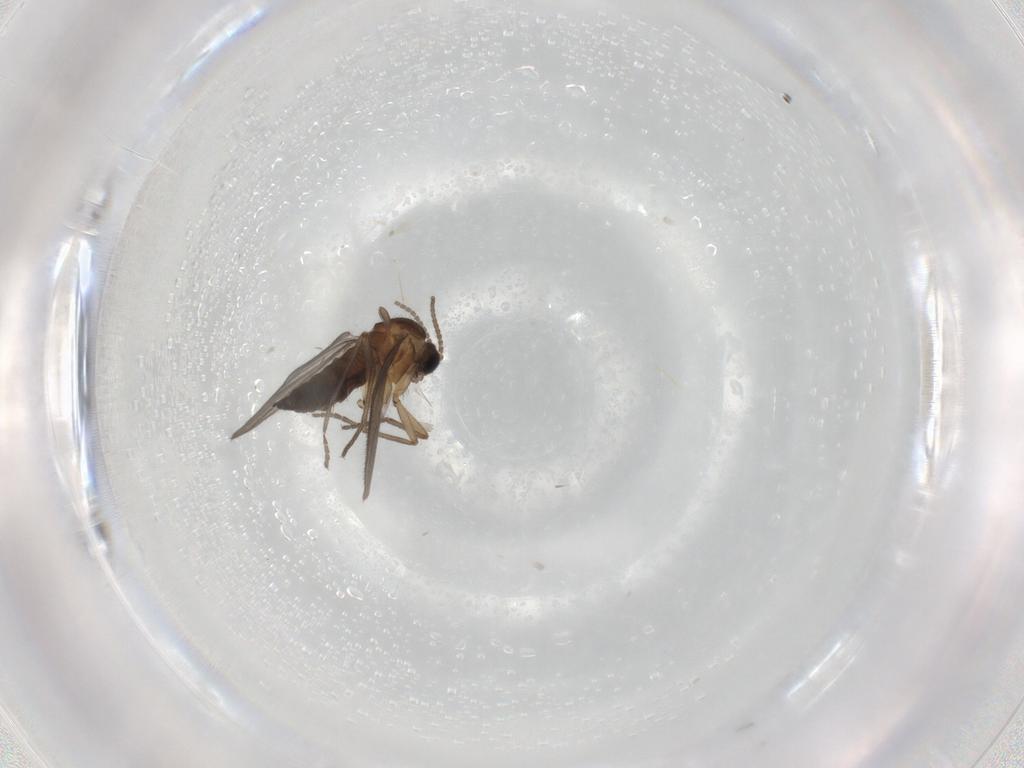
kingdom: Animalia
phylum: Arthropoda
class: Insecta
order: Diptera
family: Sciaridae
